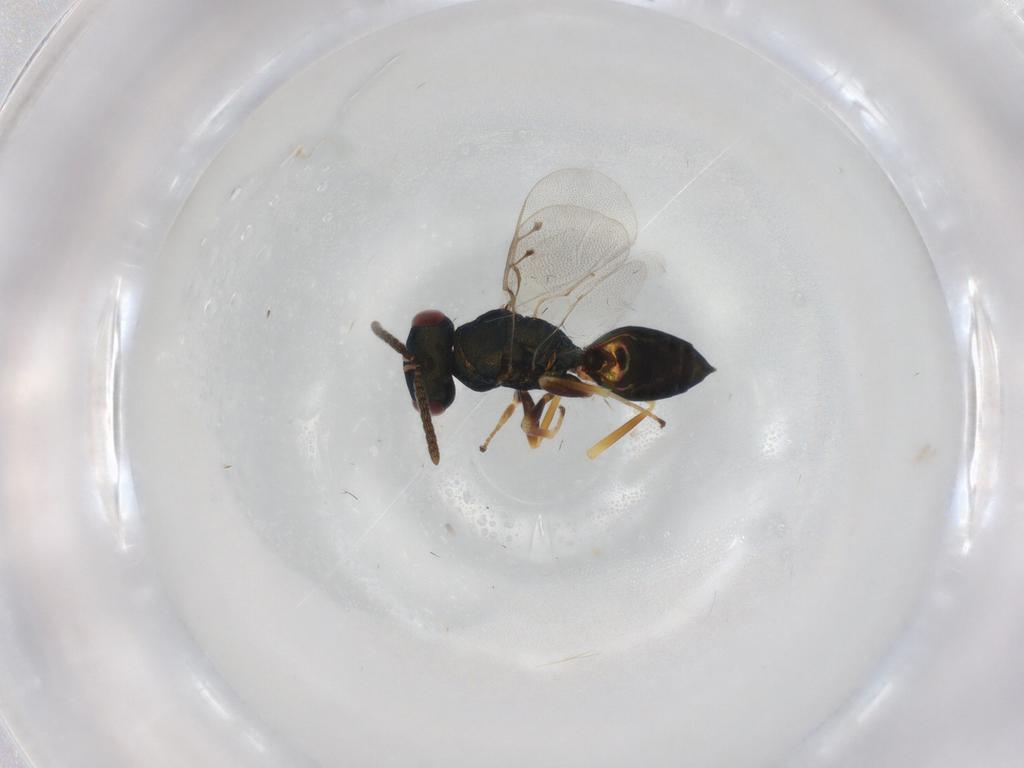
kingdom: Animalia
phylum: Arthropoda
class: Insecta
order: Hymenoptera
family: Pteromalidae
